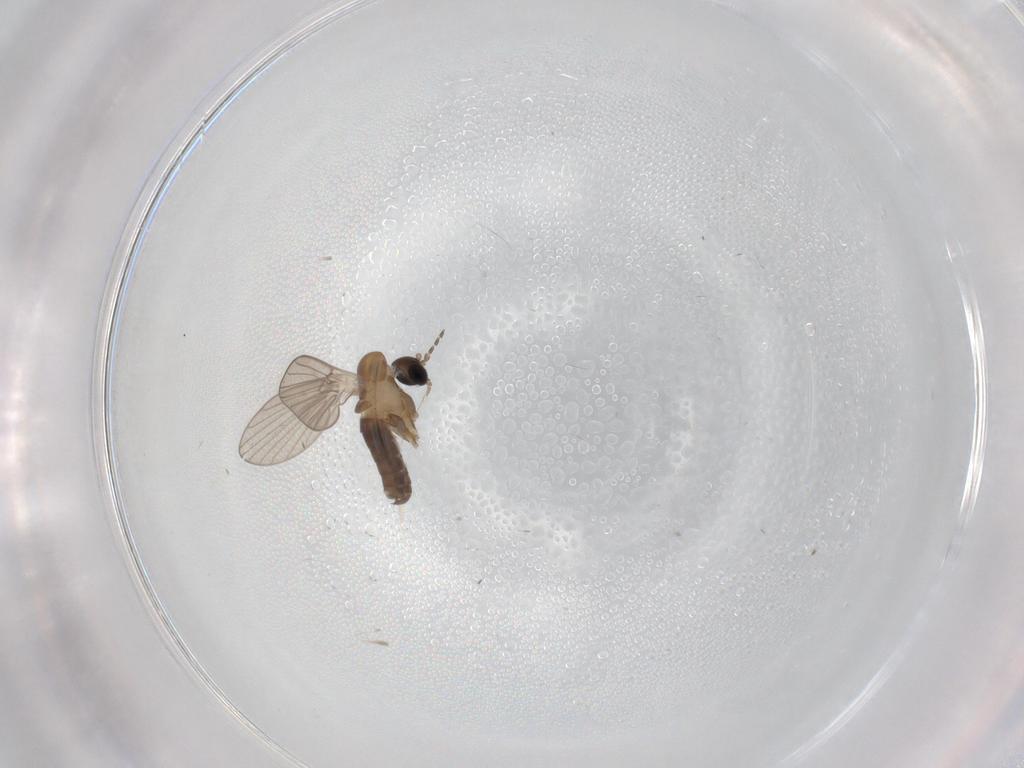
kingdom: Animalia
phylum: Arthropoda
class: Insecta
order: Diptera
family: Psychodidae
